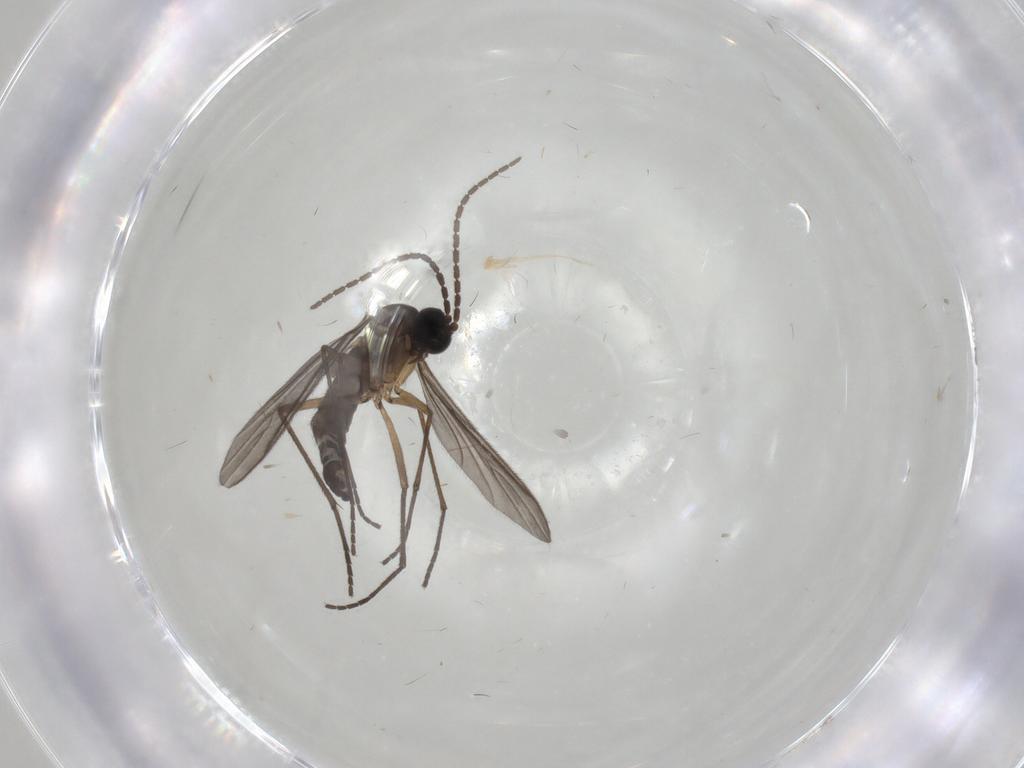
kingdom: Animalia
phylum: Arthropoda
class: Insecta
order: Diptera
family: Sciaridae
